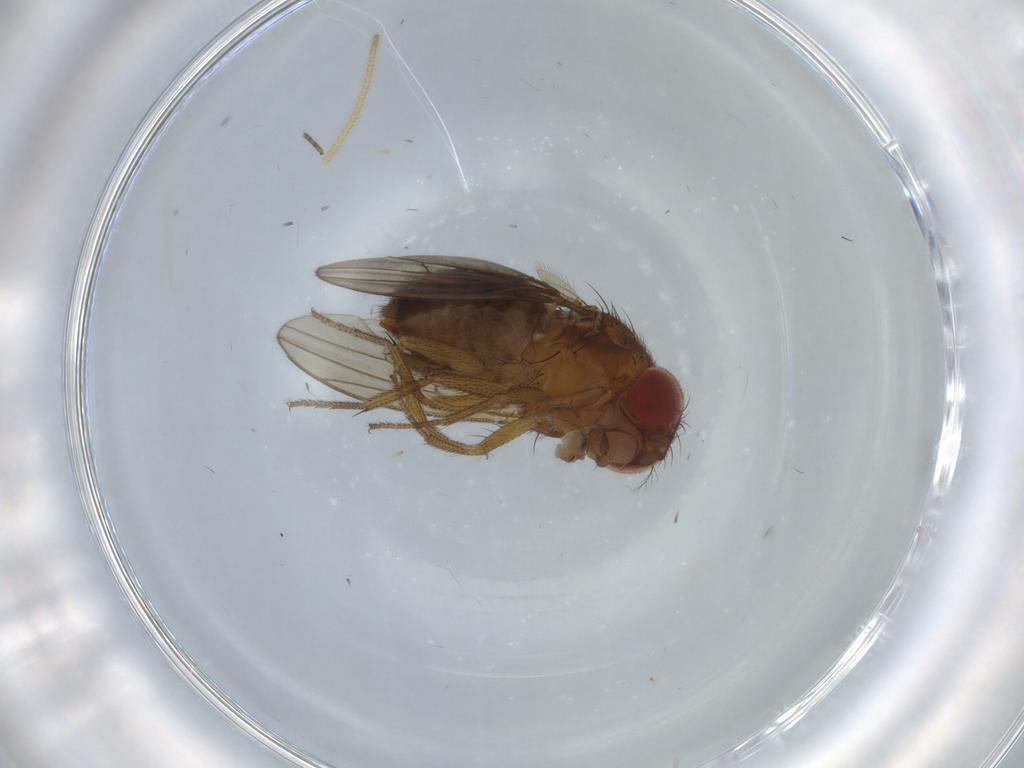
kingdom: Animalia
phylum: Arthropoda
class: Insecta
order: Diptera
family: Drosophilidae
